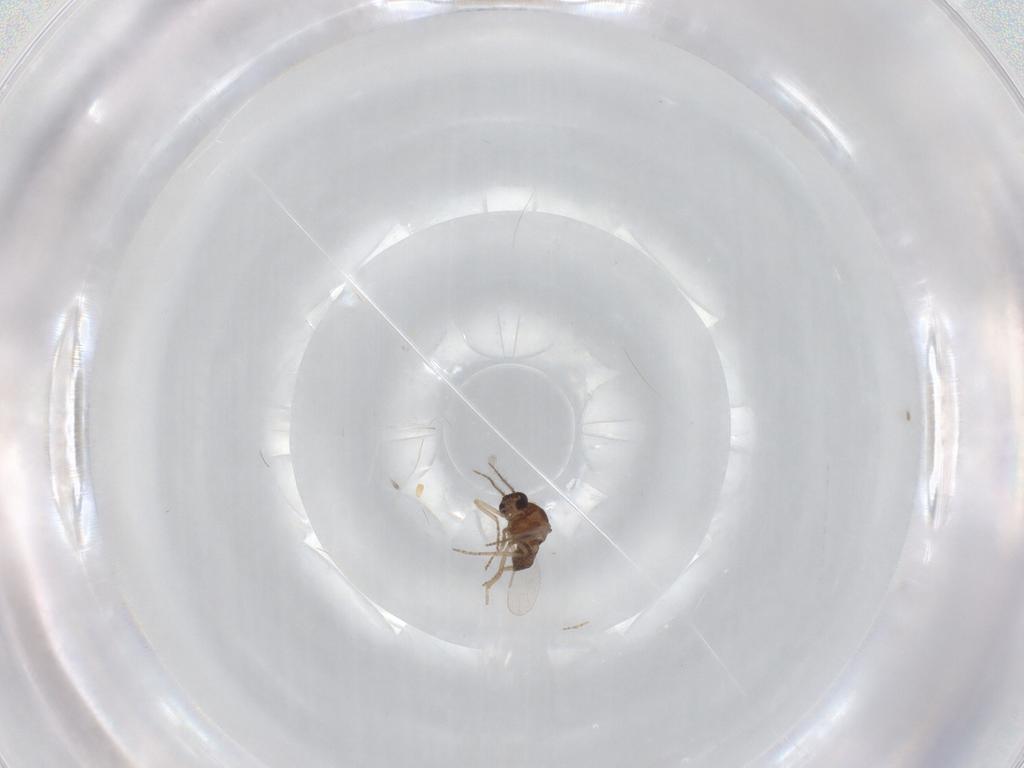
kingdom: Animalia
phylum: Arthropoda
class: Insecta
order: Diptera
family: Ceratopogonidae
